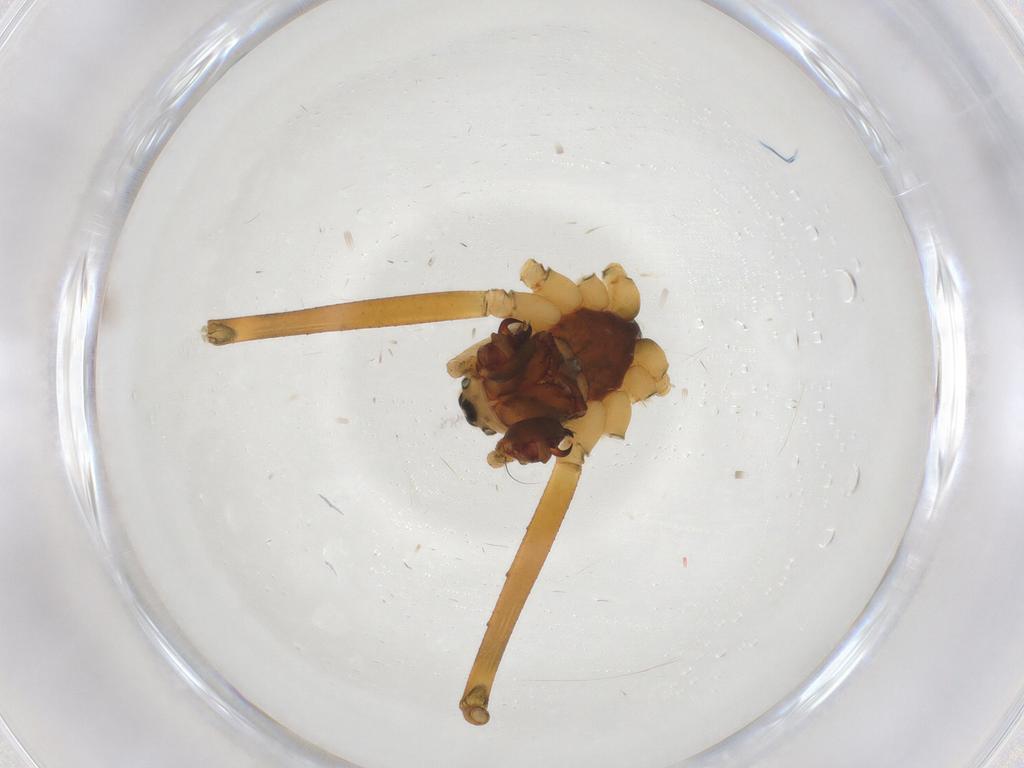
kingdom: Animalia
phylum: Arthropoda
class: Arachnida
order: Araneae
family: Linyphiidae
